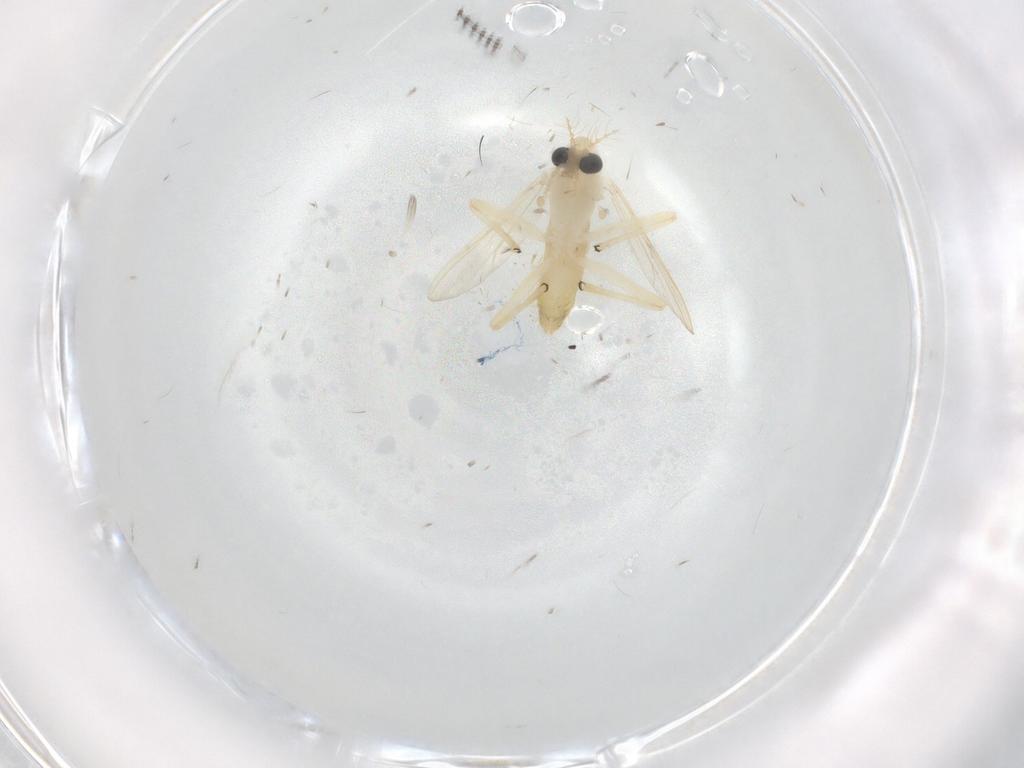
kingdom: Animalia
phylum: Arthropoda
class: Insecta
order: Diptera
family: Chironomidae
